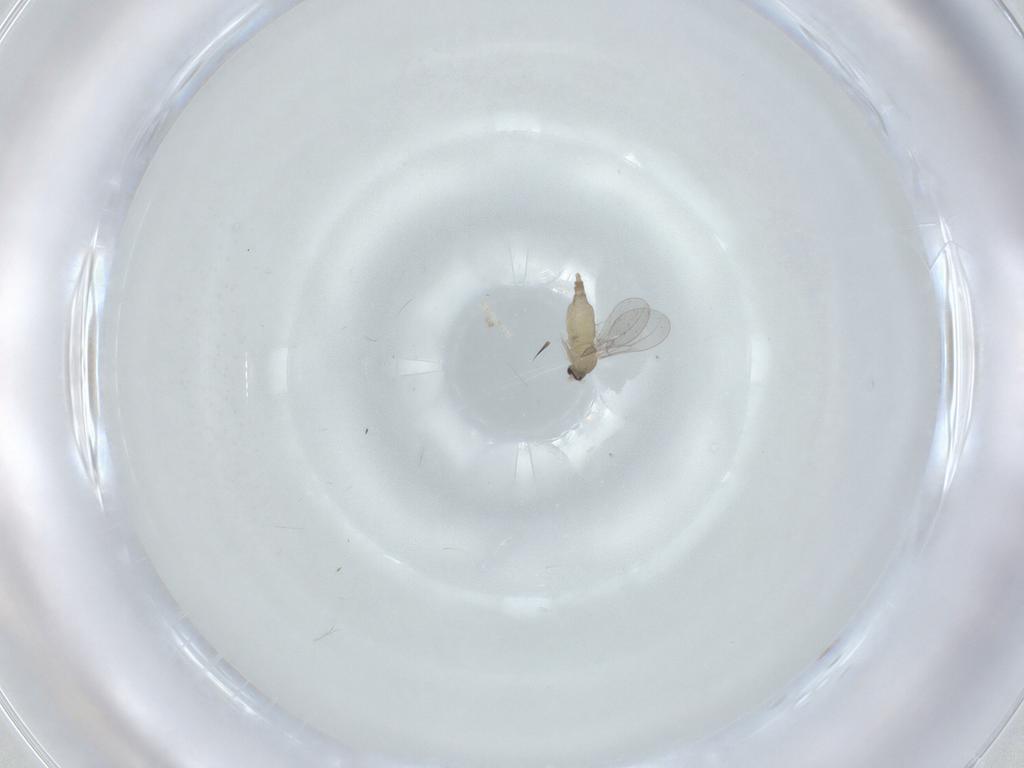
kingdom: Animalia
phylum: Arthropoda
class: Insecta
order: Diptera
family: Cecidomyiidae
